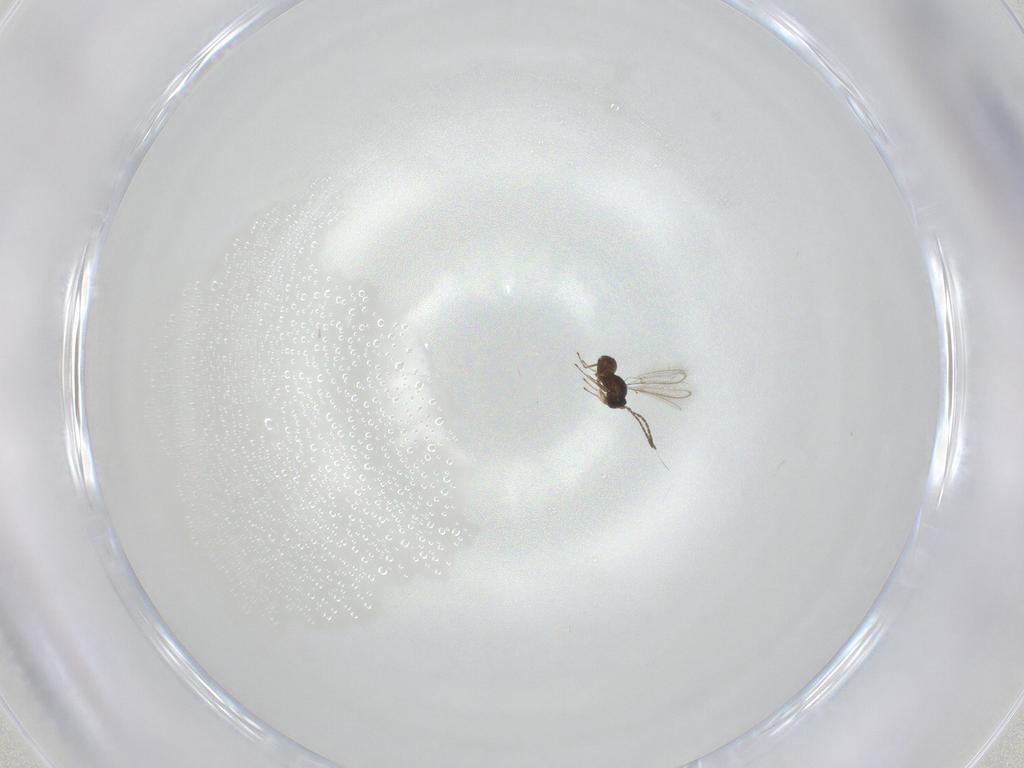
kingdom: Animalia
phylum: Arthropoda
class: Insecta
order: Hymenoptera
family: Mymaridae
